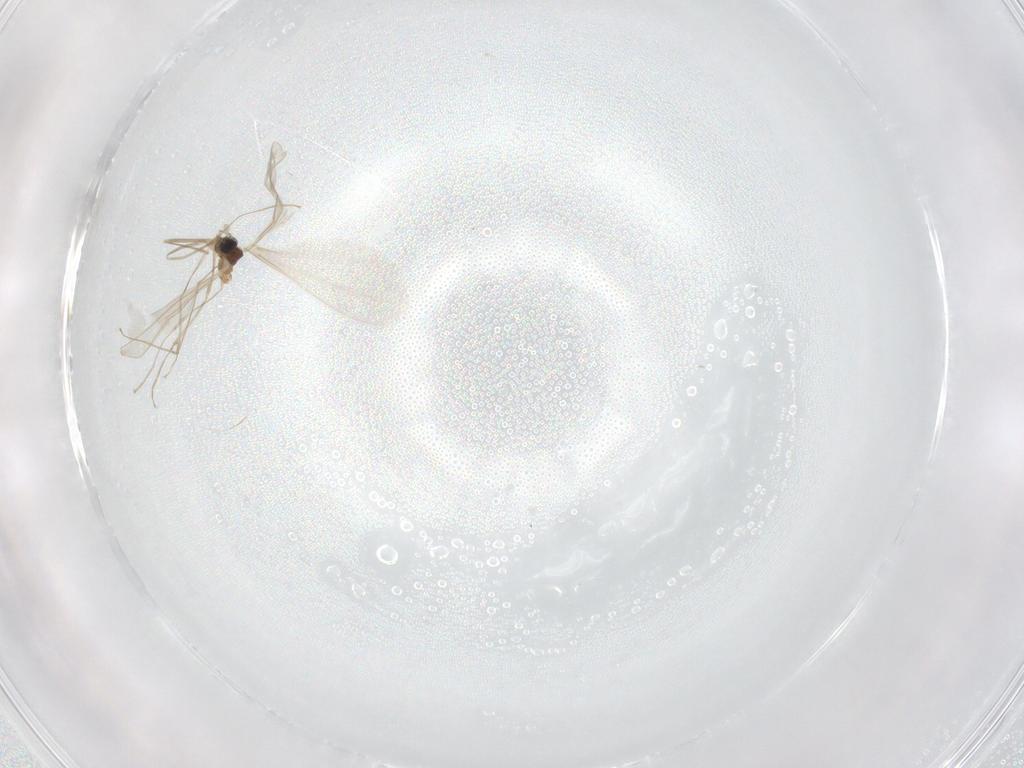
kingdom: Animalia
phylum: Arthropoda
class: Insecta
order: Diptera
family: Cecidomyiidae
